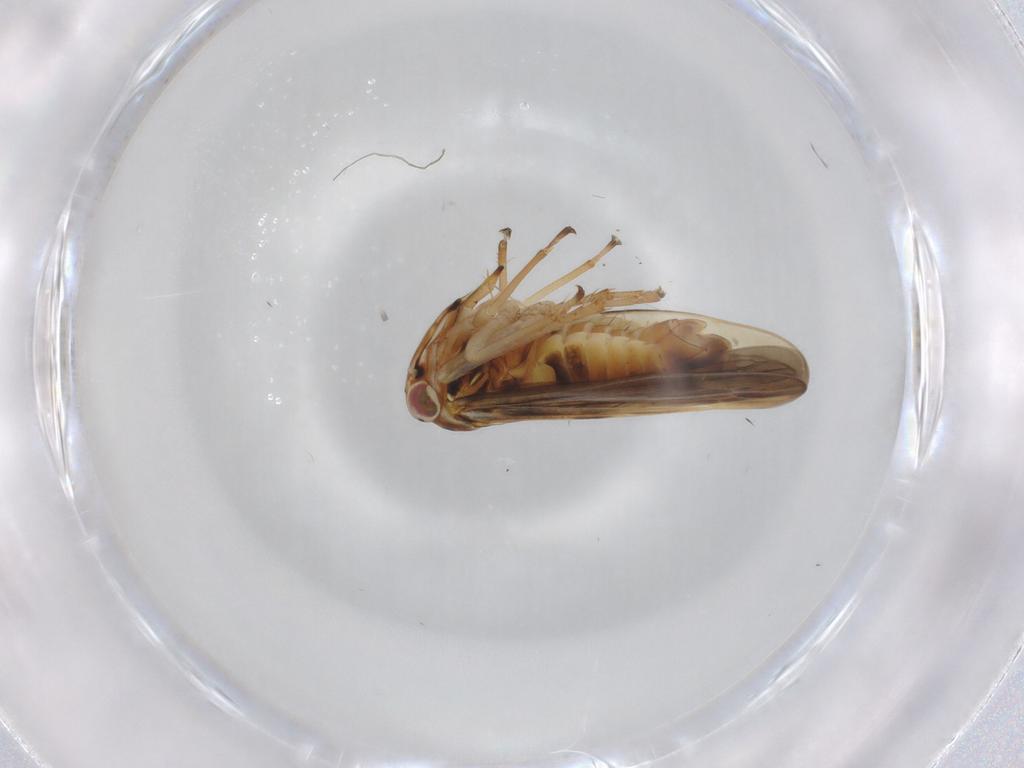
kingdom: Animalia
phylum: Arthropoda
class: Insecta
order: Hemiptera
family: Cicadellidae
